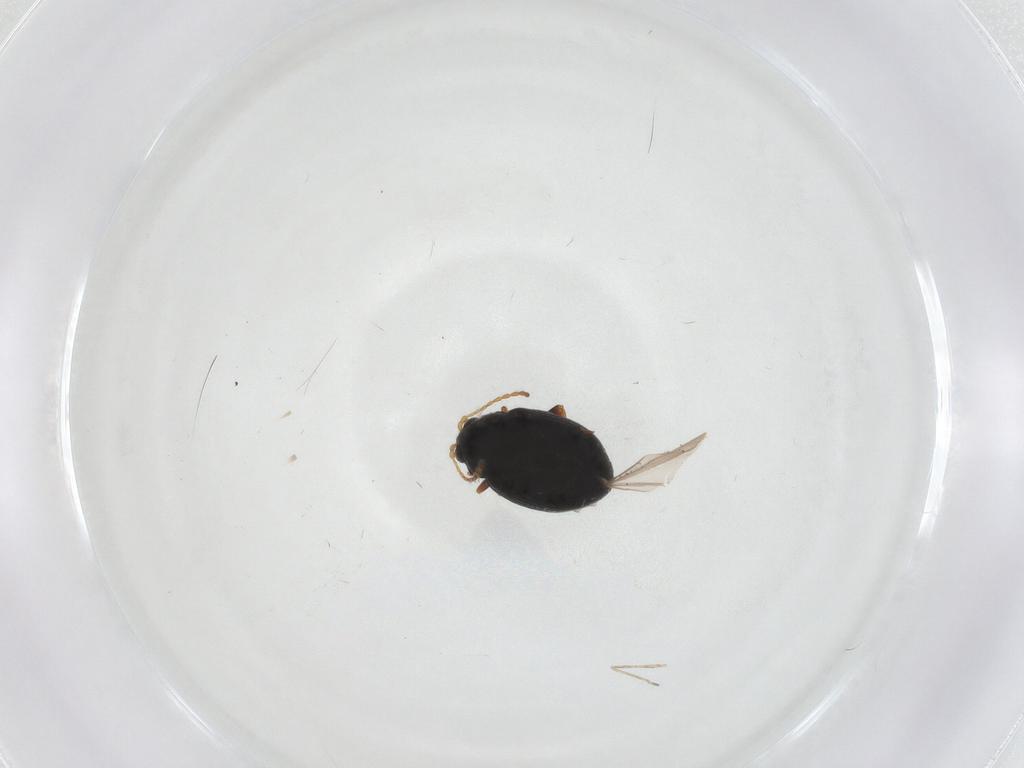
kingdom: Animalia
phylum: Arthropoda
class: Insecta
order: Coleoptera
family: Chrysomelidae
